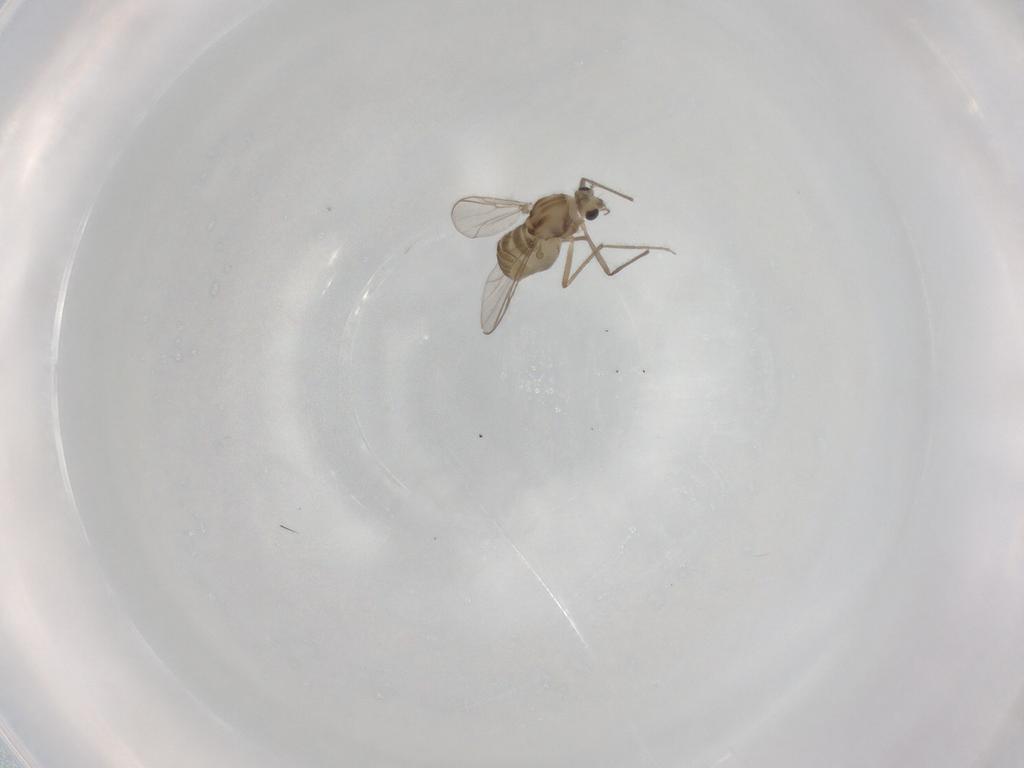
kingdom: Animalia
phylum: Arthropoda
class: Insecta
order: Diptera
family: Chironomidae
